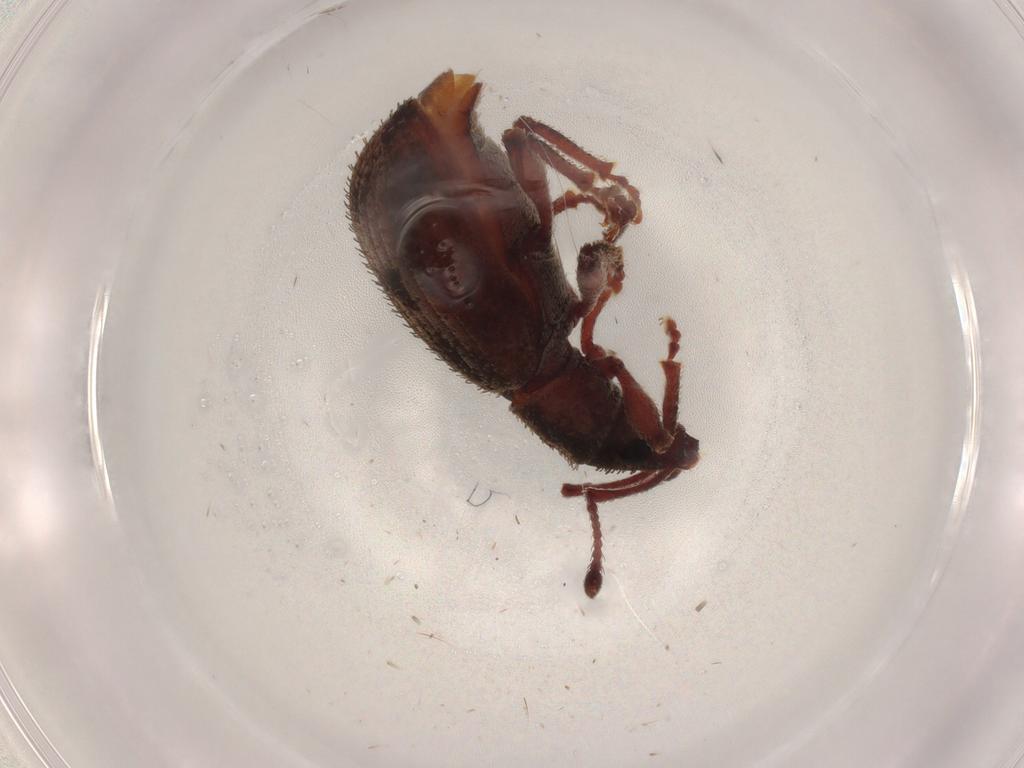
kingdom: Animalia
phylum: Arthropoda
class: Insecta
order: Coleoptera
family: Curculionidae
